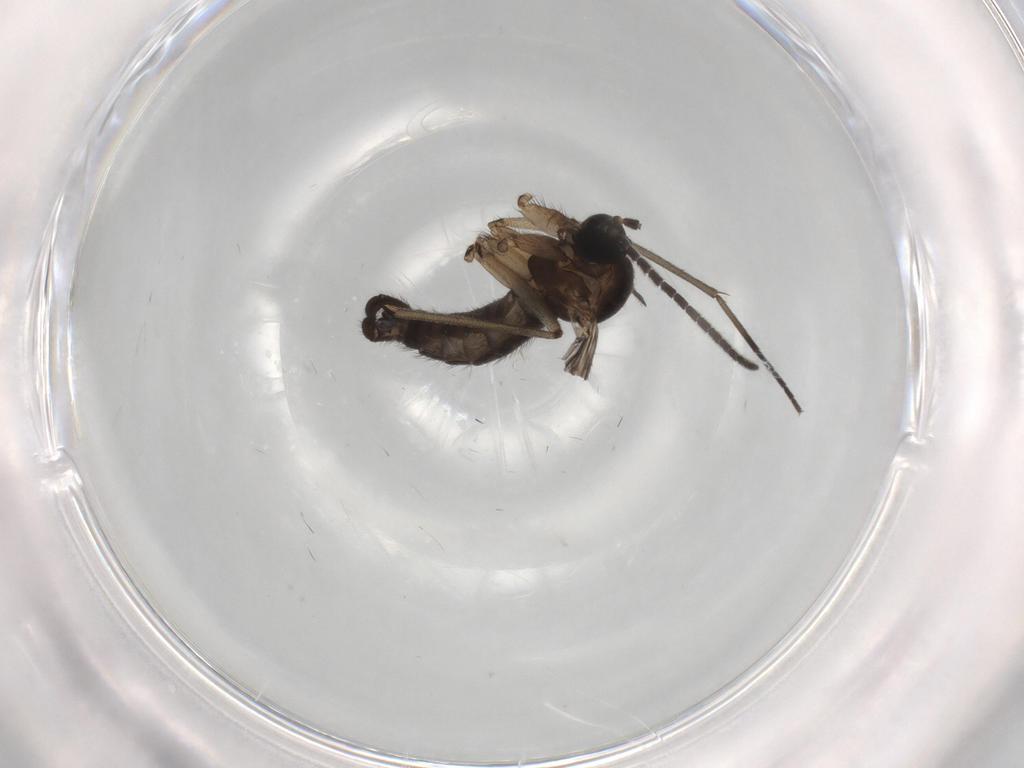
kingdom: Animalia
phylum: Arthropoda
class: Insecta
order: Diptera
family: Sciaridae
